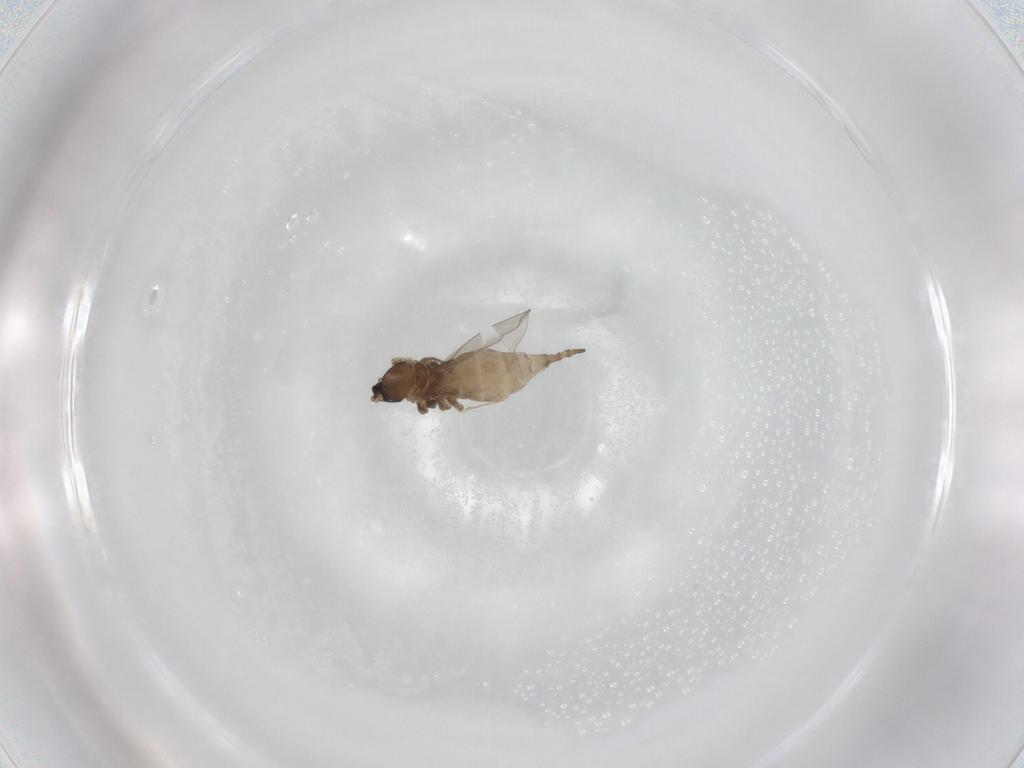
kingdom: Animalia
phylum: Arthropoda
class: Insecta
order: Diptera
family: Cecidomyiidae
